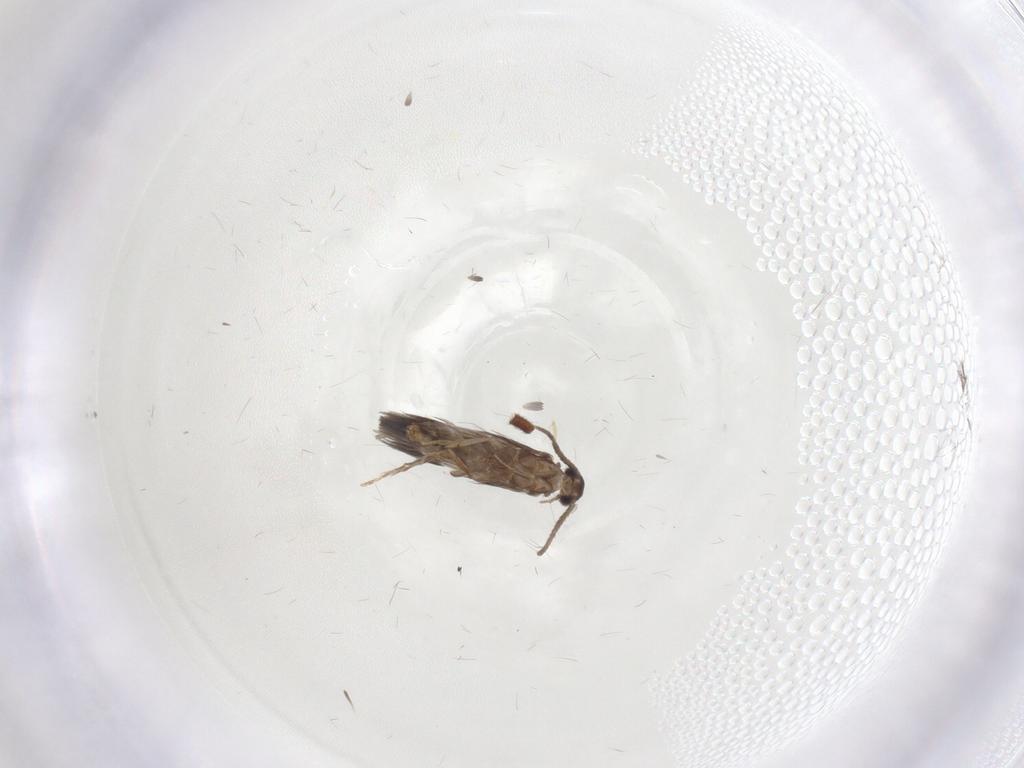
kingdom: Animalia
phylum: Arthropoda
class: Insecta
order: Trichoptera
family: Hydroptilidae
